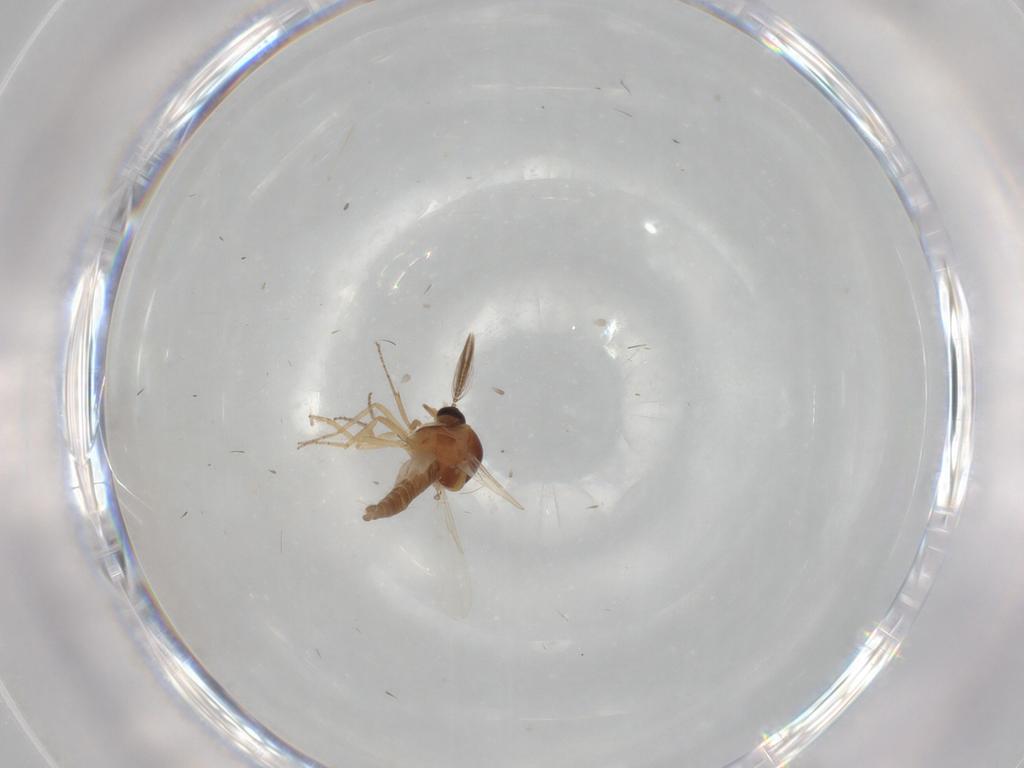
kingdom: Animalia
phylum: Arthropoda
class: Insecta
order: Diptera
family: Ceratopogonidae
